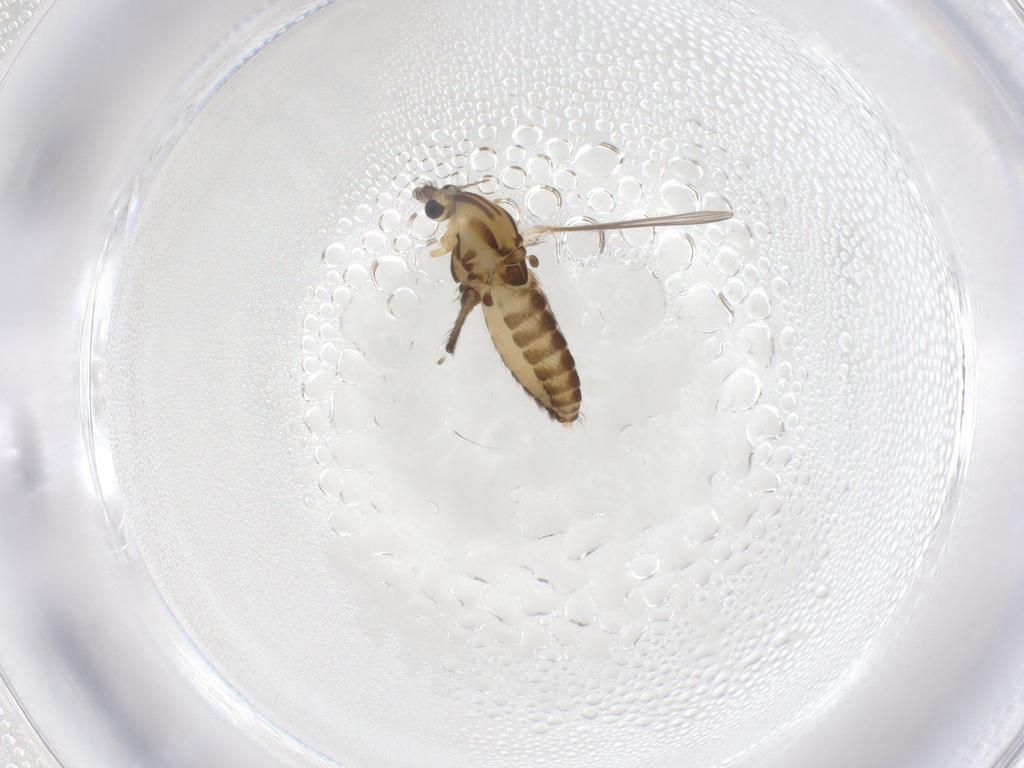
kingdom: Animalia
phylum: Arthropoda
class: Insecta
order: Diptera
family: Chironomidae
